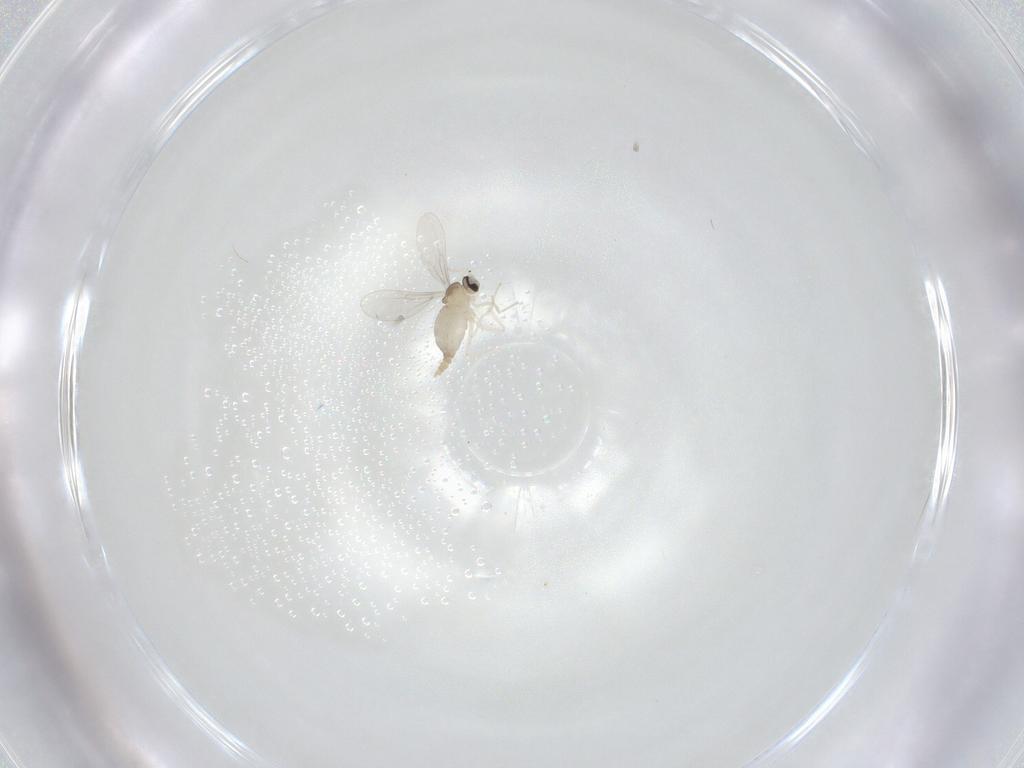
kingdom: Animalia
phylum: Arthropoda
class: Insecta
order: Diptera
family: Cecidomyiidae
